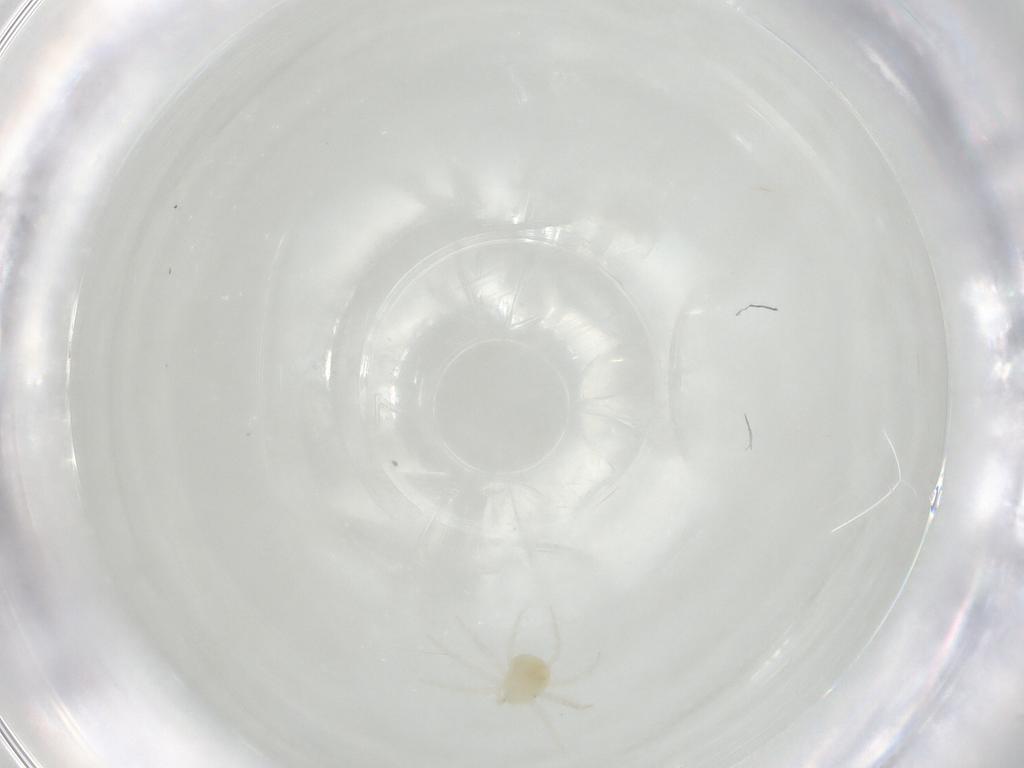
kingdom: Animalia
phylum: Arthropoda
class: Arachnida
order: Trombidiformes
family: Anystidae
